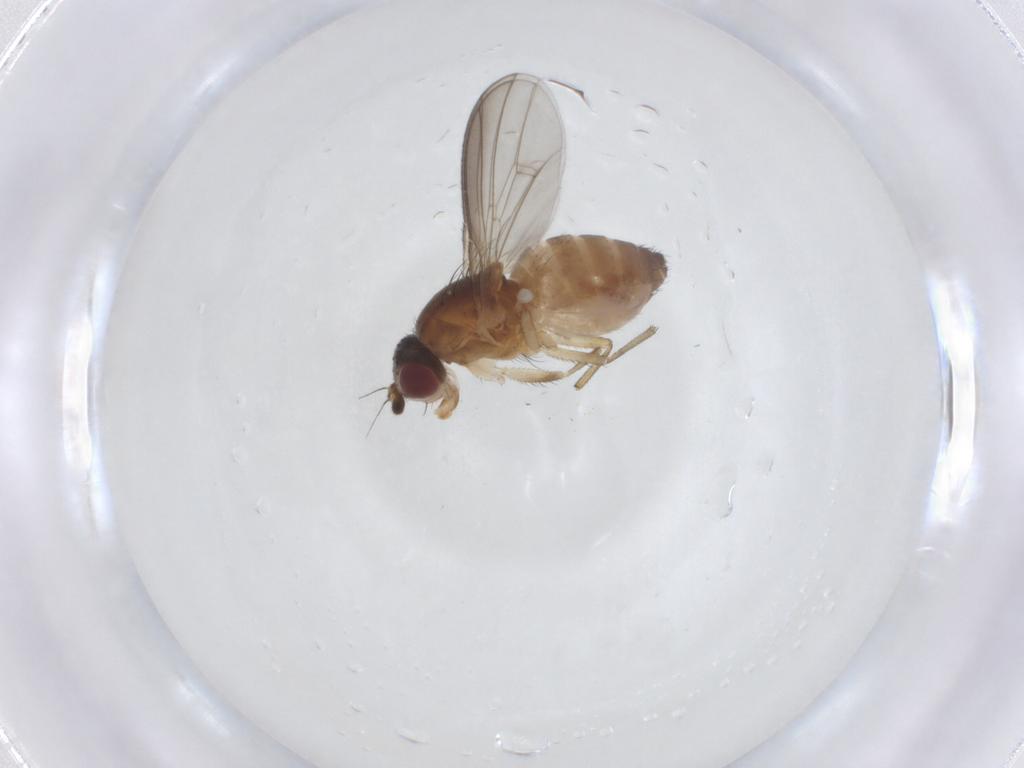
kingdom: Animalia
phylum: Arthropoda
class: Insecta
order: Diptera
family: Heleomyzidae
